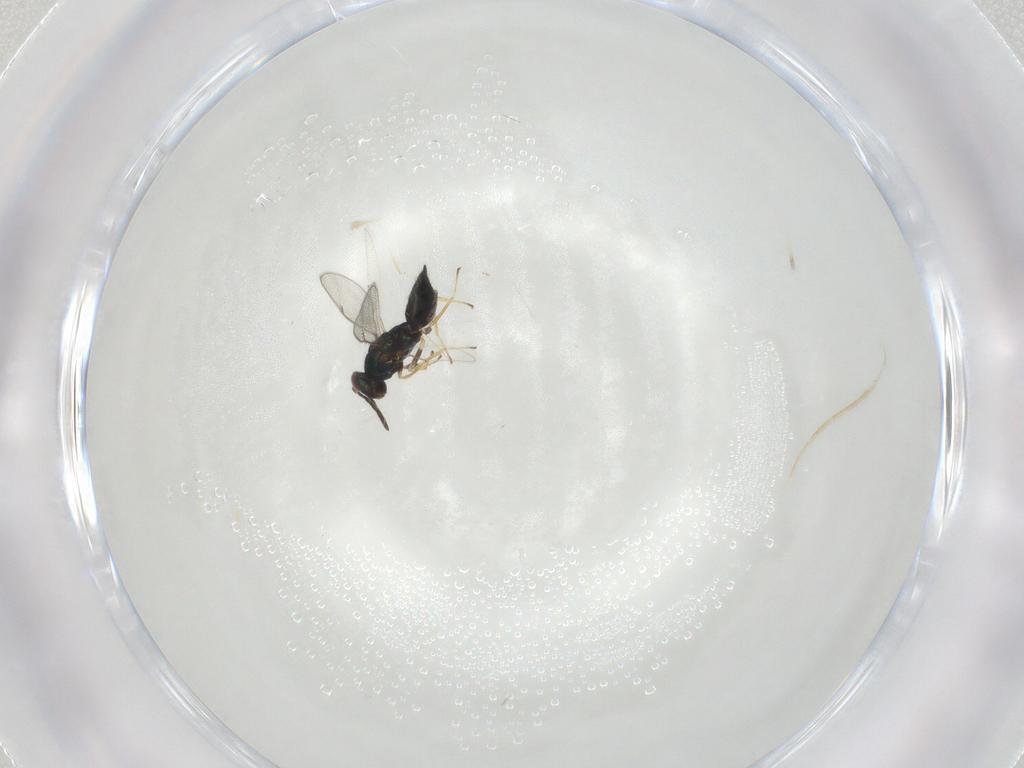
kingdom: Animalia
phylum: Arthropoda
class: Insecta
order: Hymenoptera
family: Eulophidae
